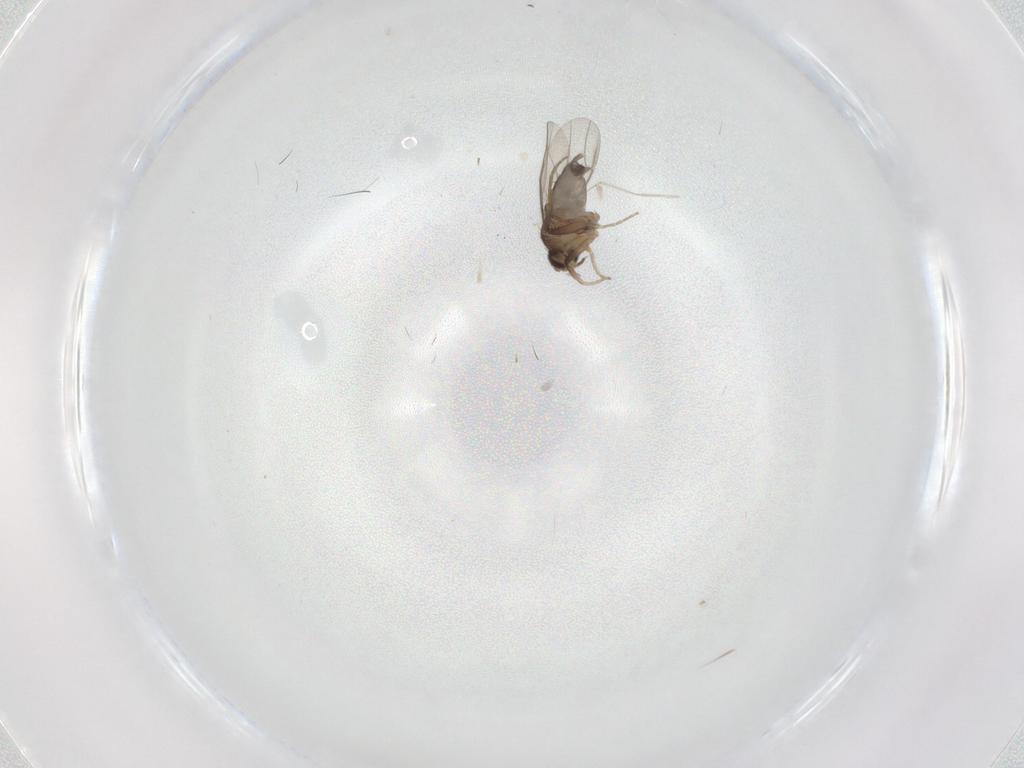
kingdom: Animalia
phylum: Arthropoda
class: Insecta
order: Diptera
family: Phoridae
